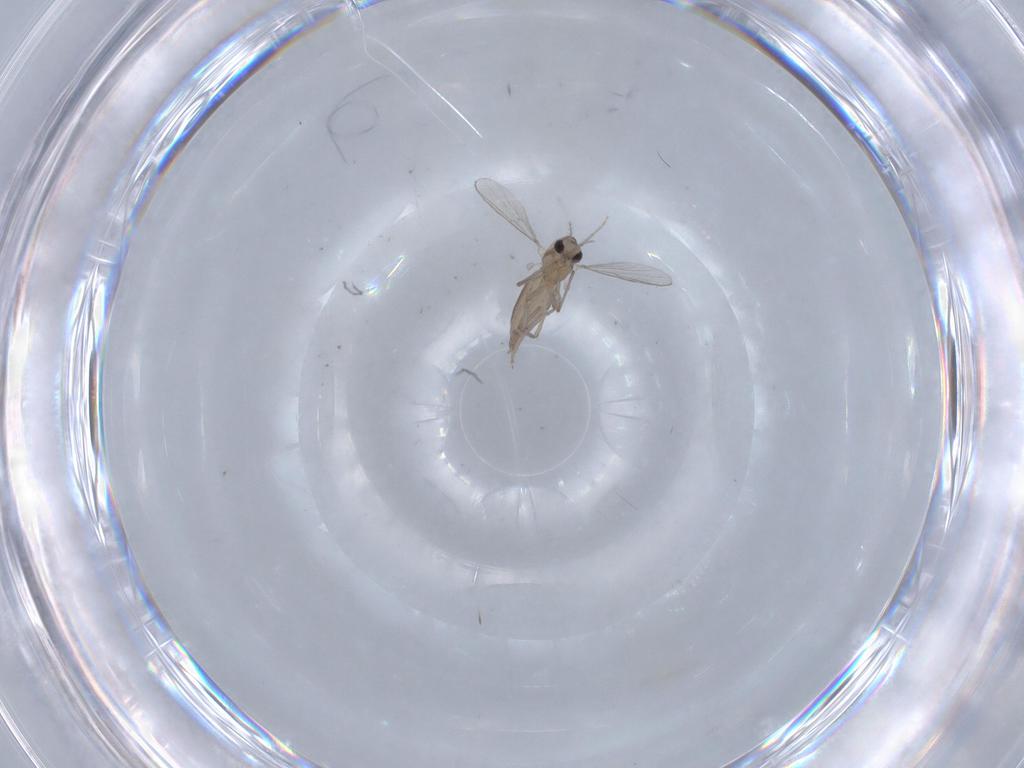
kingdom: Animalia
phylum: Arthropoda
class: Insecta
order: Diptera
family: Chironomidae
